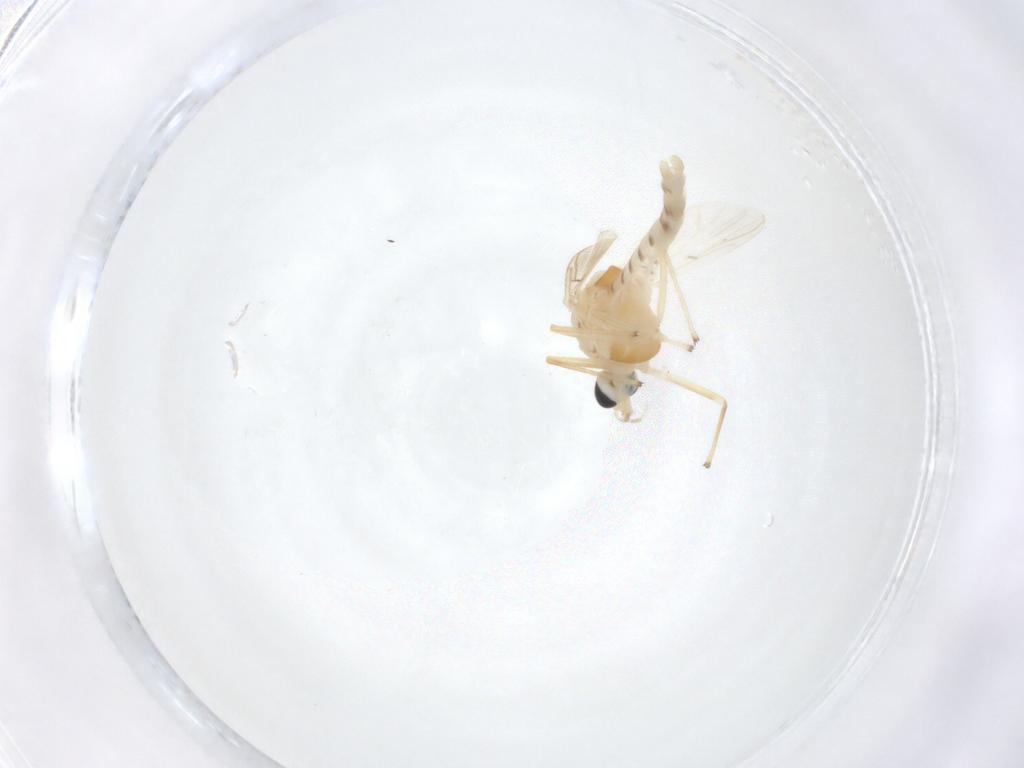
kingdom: Animalia
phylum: Arthropoda
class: Insecta
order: Diptera
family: Chironomidae
